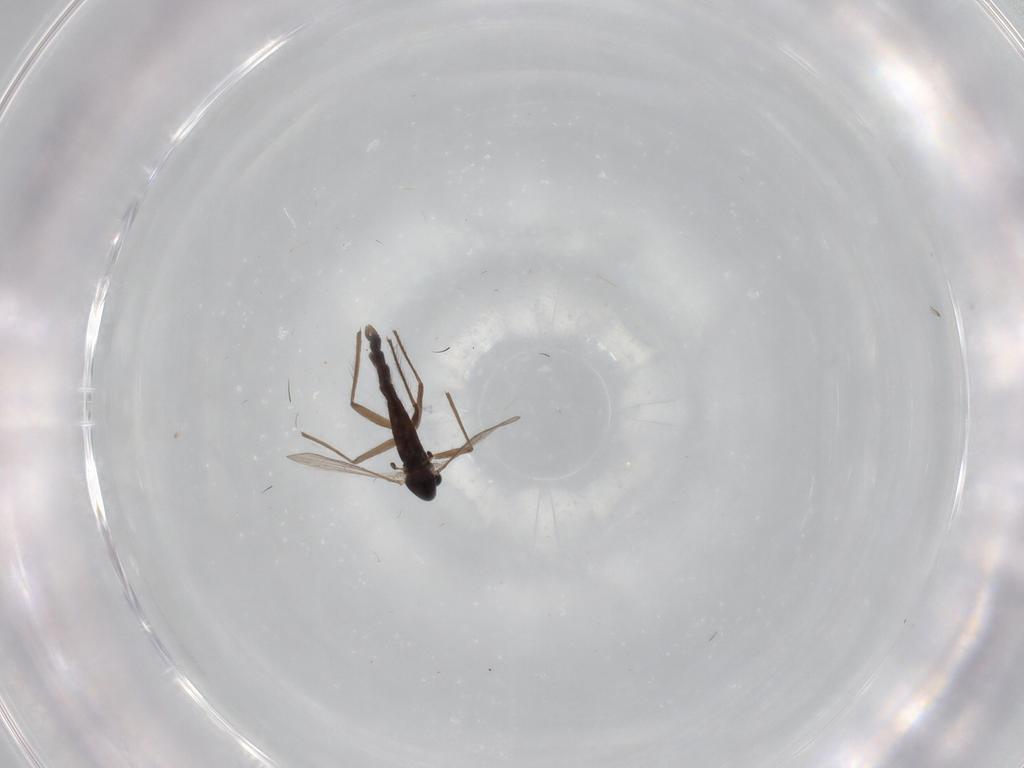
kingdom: Animalia
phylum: Arthropoda
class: Insecta
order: Diptera
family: Chironomidae
